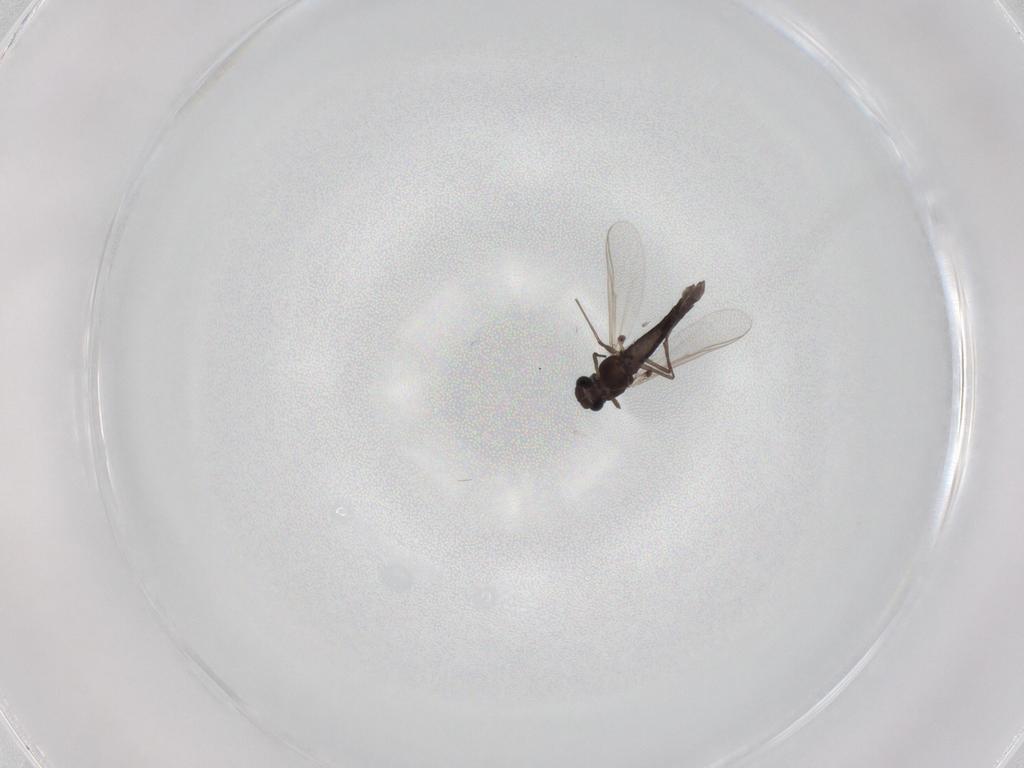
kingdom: Animalia
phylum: Arthropoda
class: Insecta
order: Diptera
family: Chironomidae
